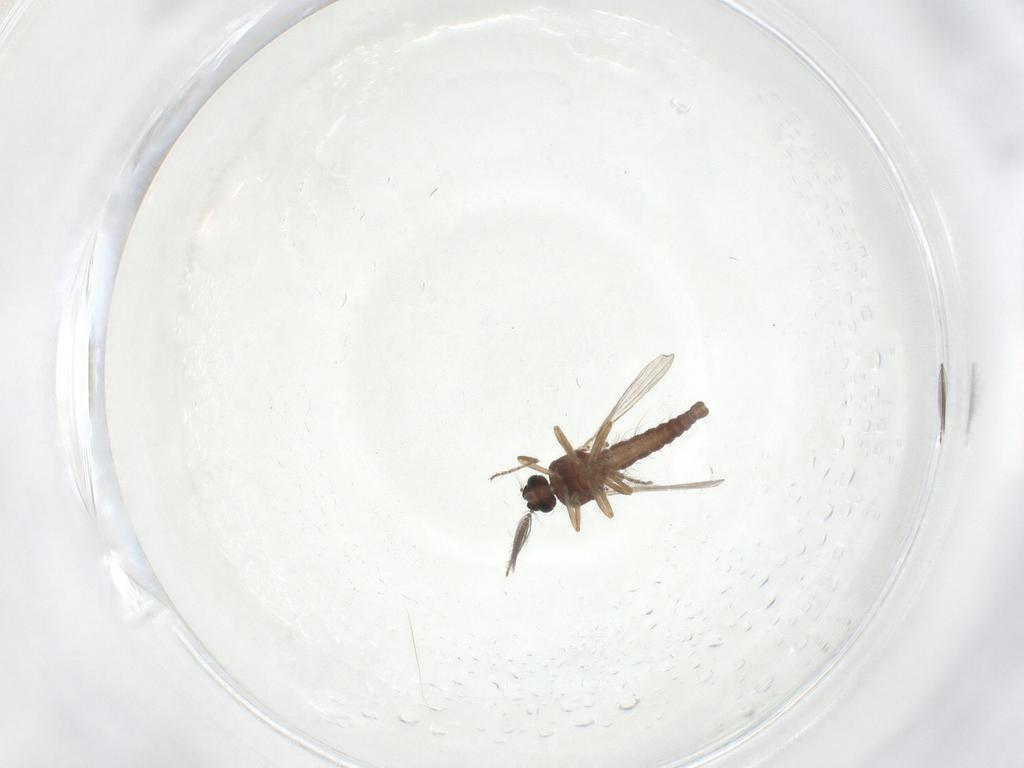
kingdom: Animalia
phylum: Arthropoda
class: Insecta
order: Diptera
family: Ceratopogonidae
